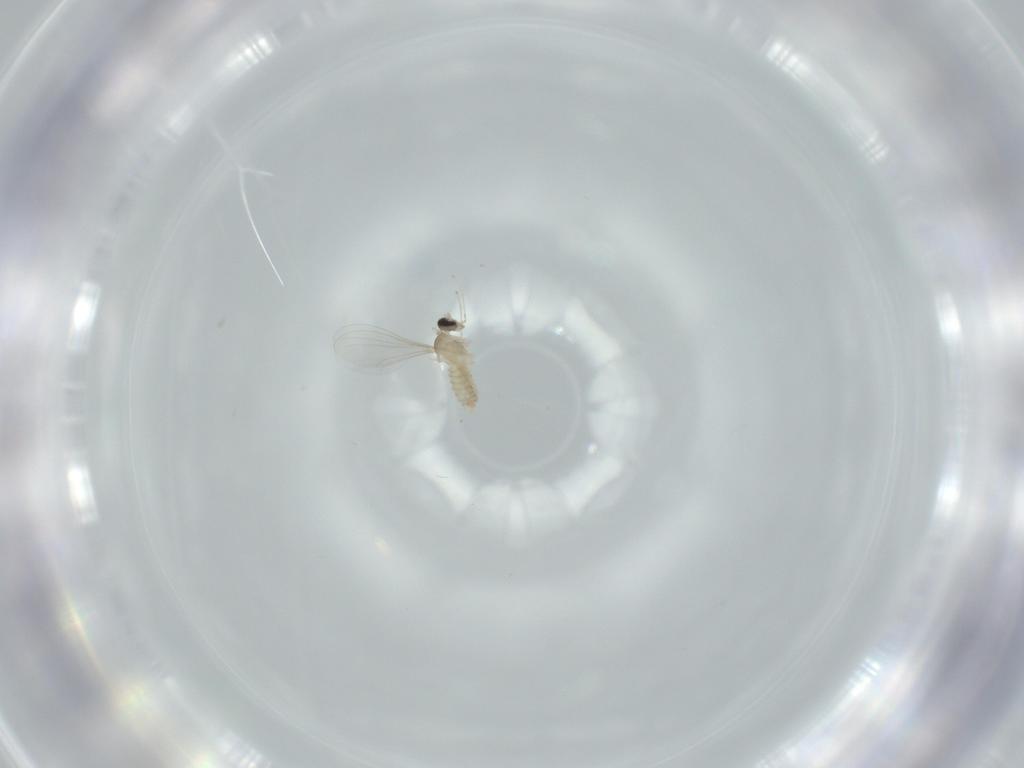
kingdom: Animalia
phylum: Arthropoda
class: Insecta
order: Diptera
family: Cecidomyiidae
